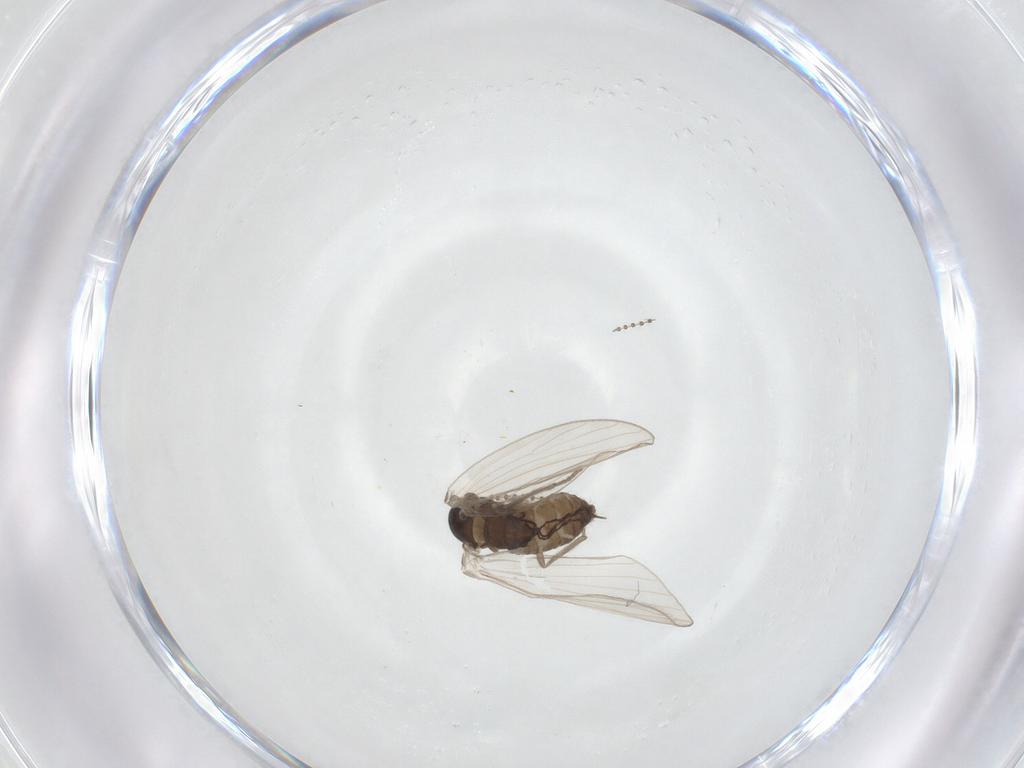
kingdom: Animalia
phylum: Arthropoda
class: Insecta
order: Diptera
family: Psychodidae
